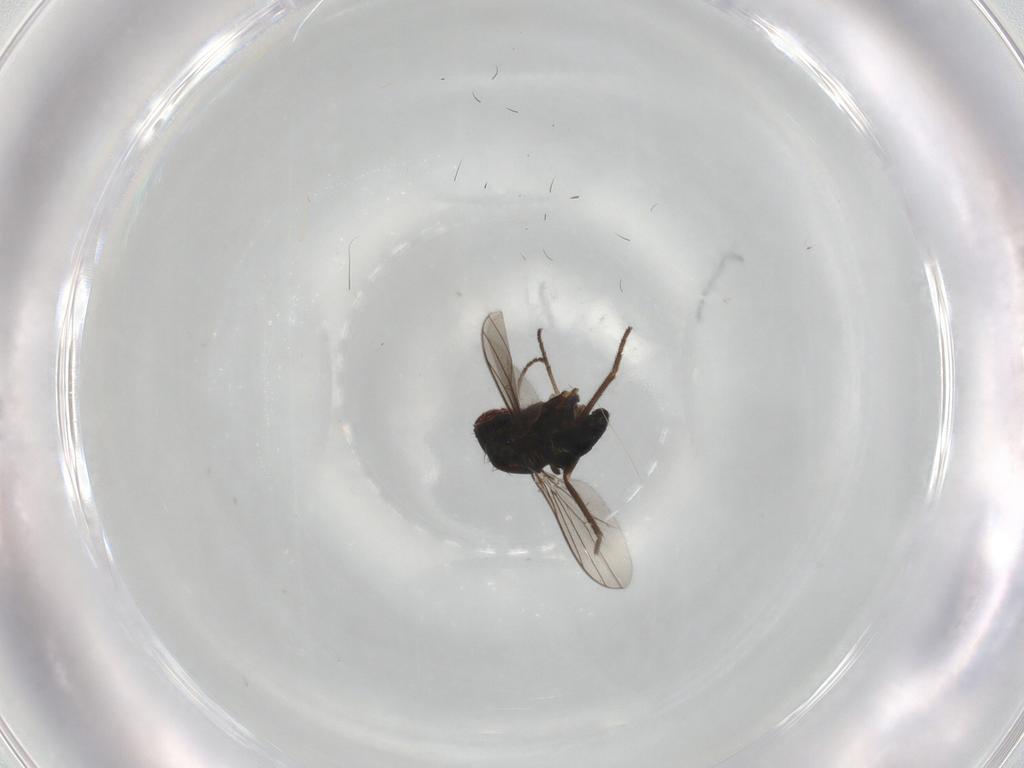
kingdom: Animalia
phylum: Arthropoda
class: Insecta
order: Diptera
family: Dolichopodidae
